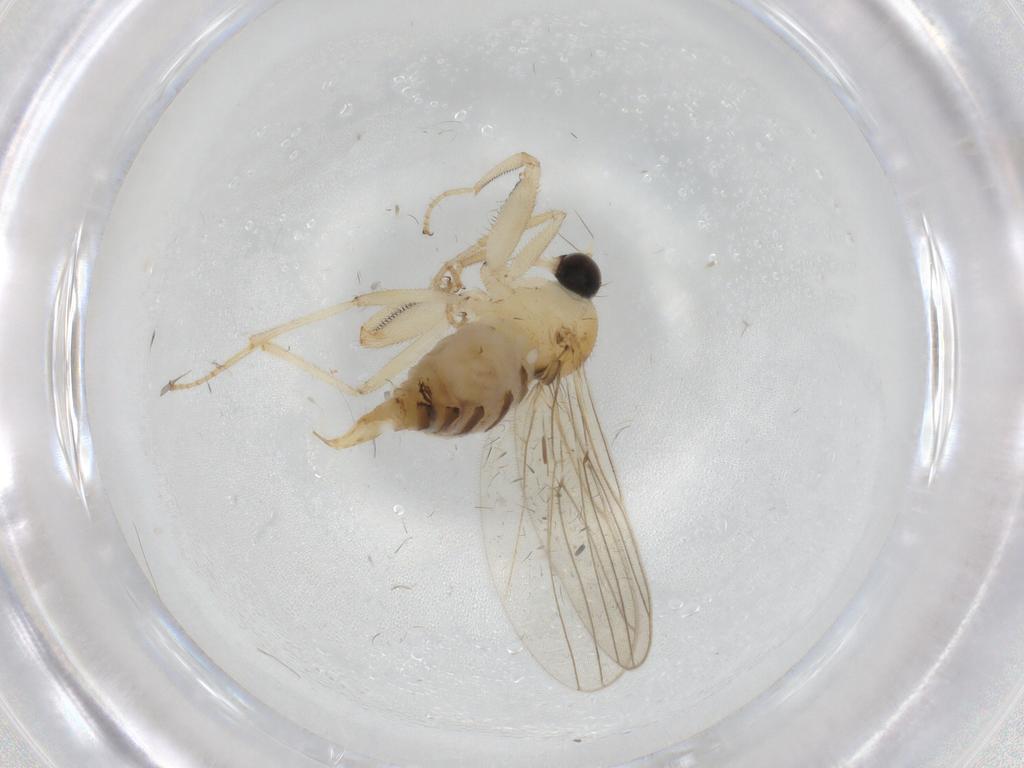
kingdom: Animalia
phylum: Arthropoda
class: Insecta
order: Diptera
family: Hybotidae
